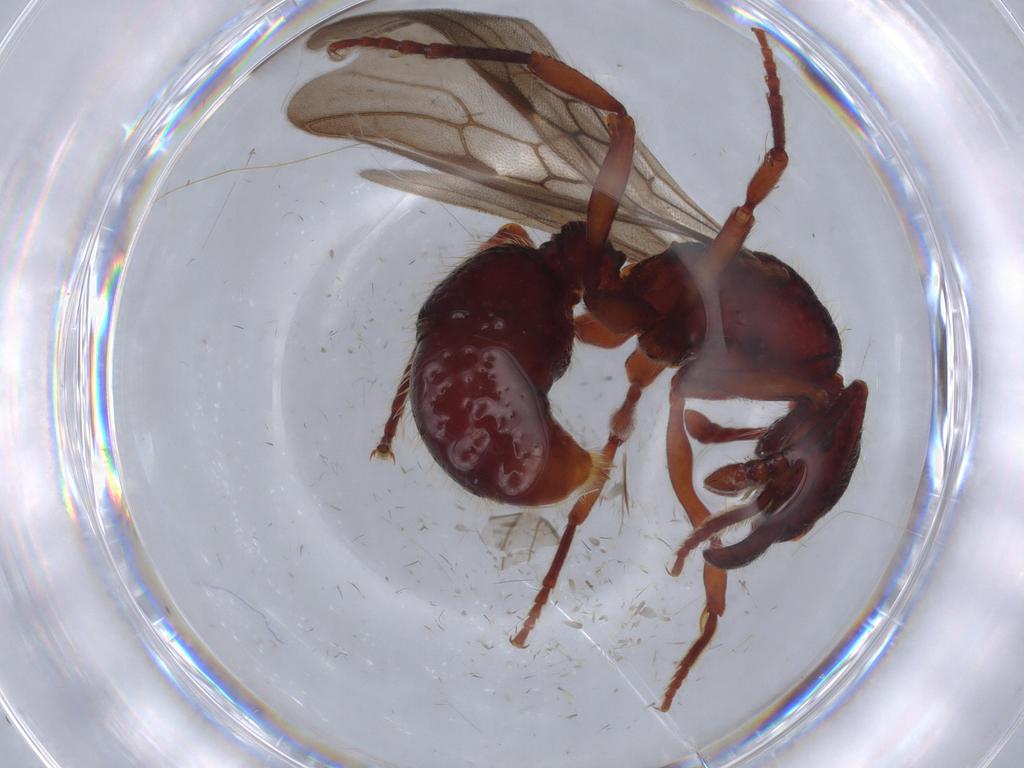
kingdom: Animalia
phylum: Arthropoda
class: Insecta
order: Hymenoptera
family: Formicidae
